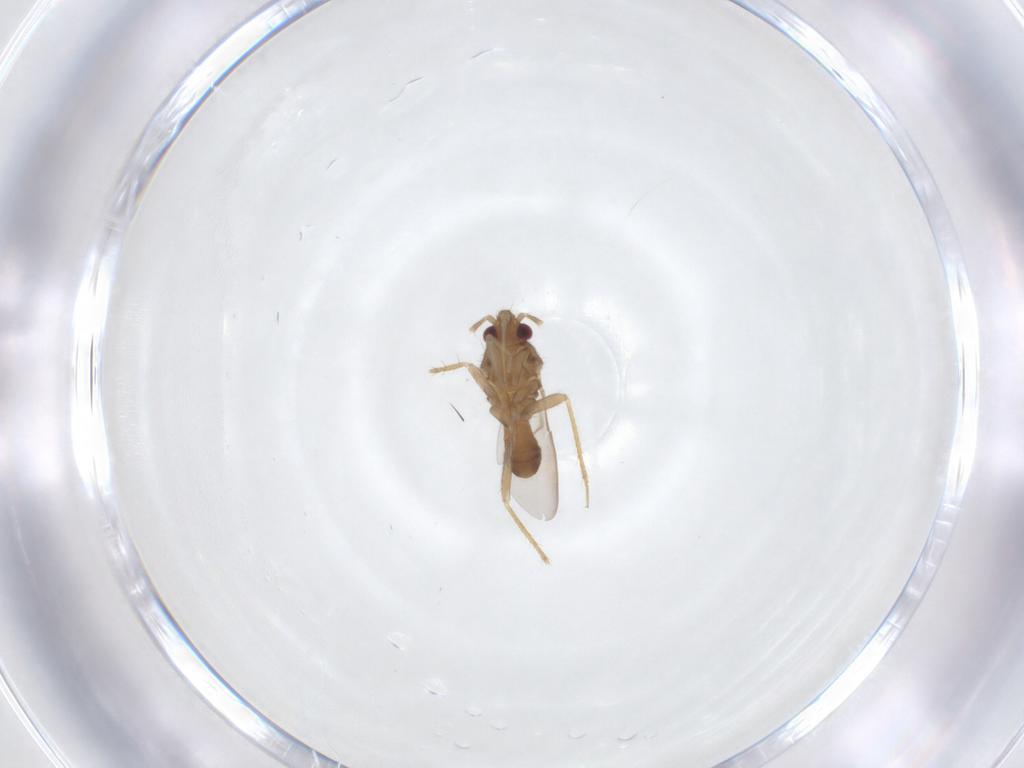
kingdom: Animalia
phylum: Arthropoda
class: Insecta
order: Hemiptera
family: Ceratocombidae
